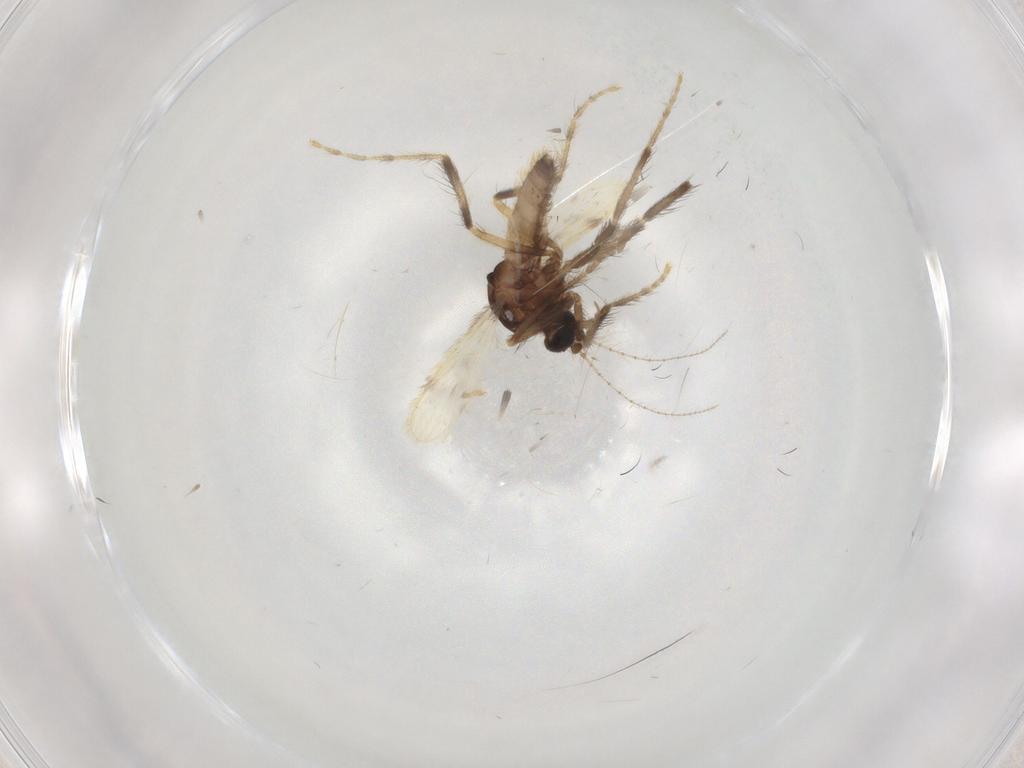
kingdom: Animalia
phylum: Arthropoda
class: Insecta
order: Diptera
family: Corethrellidae
